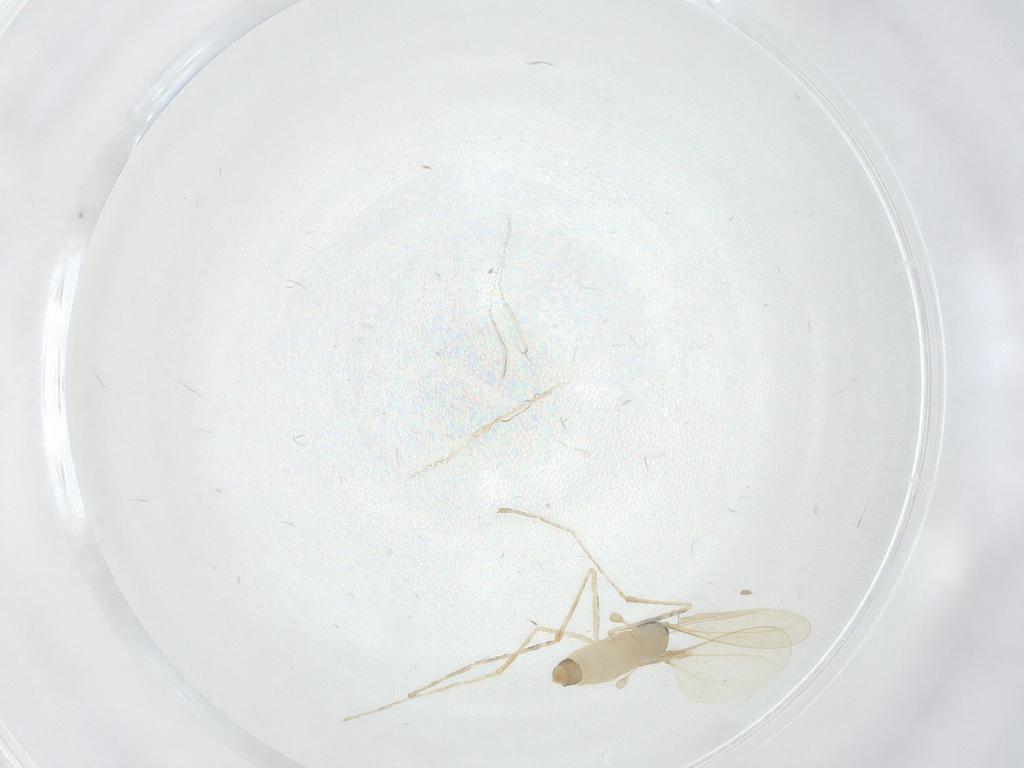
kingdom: Animalia
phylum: Arthropoda
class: Insecta
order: Diptera
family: Cecidomyiidae
